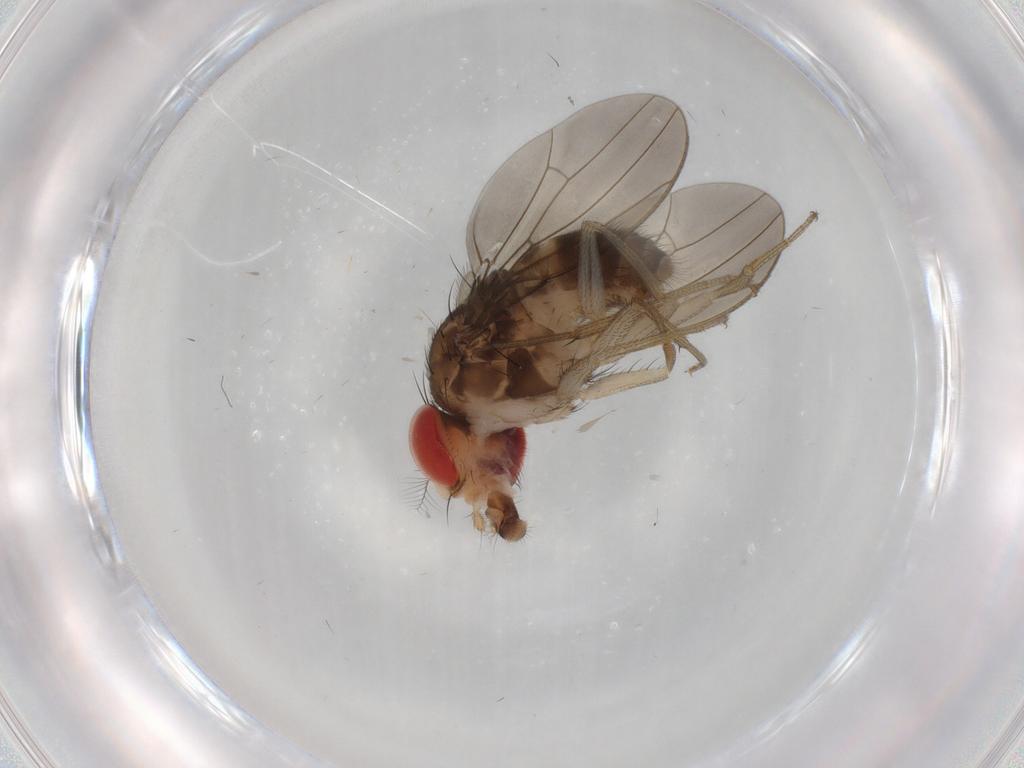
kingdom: Animalia
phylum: Arthropoda
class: Insecta
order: Diptera
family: Drosophilidae
